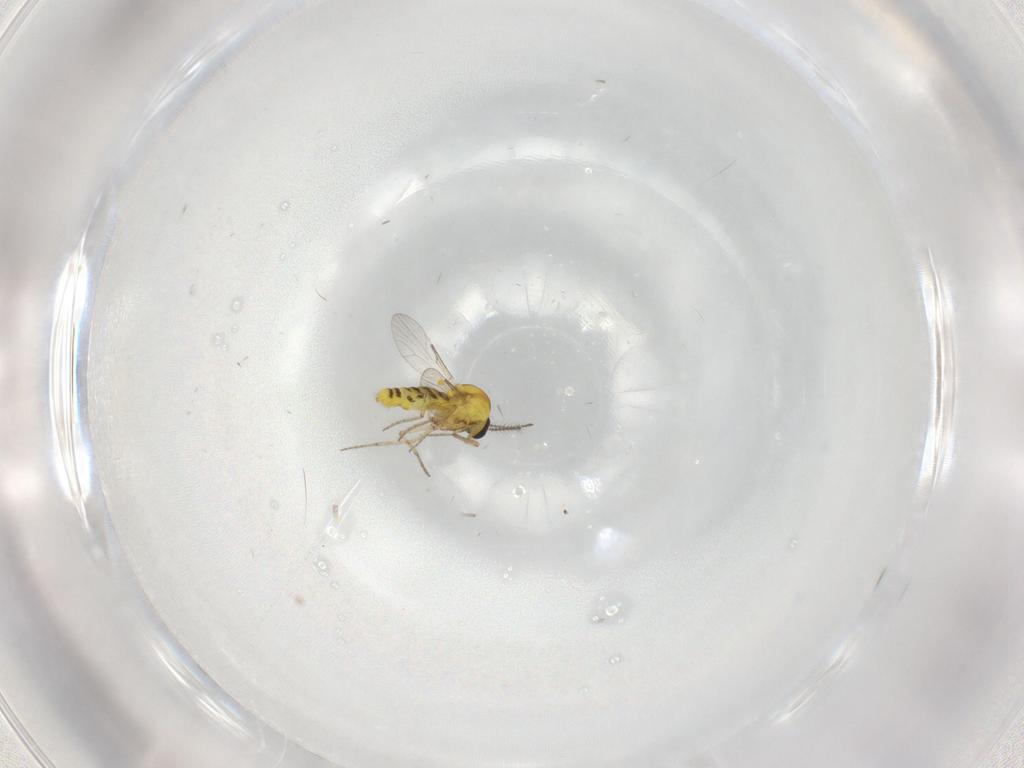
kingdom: Animalia
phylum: Arthropoda
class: Insecta
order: Diptera
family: Ceratopogonidae
